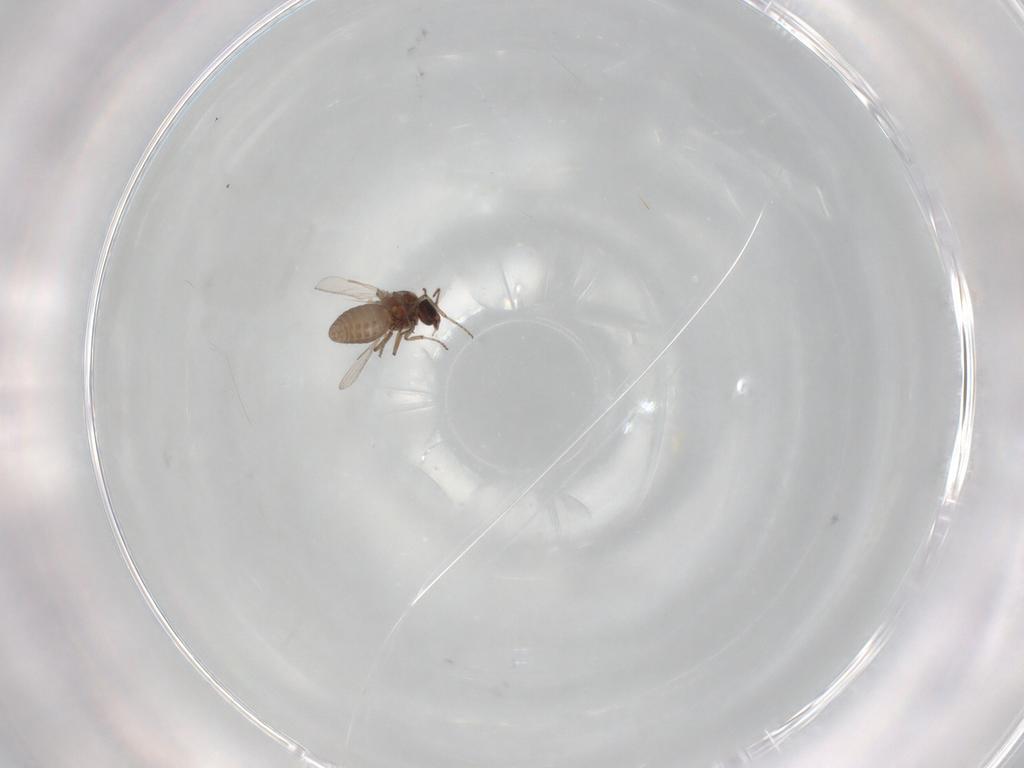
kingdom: Animalia
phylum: Arthropoda
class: Insecta
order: Diptera
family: Ceratopogonidae
